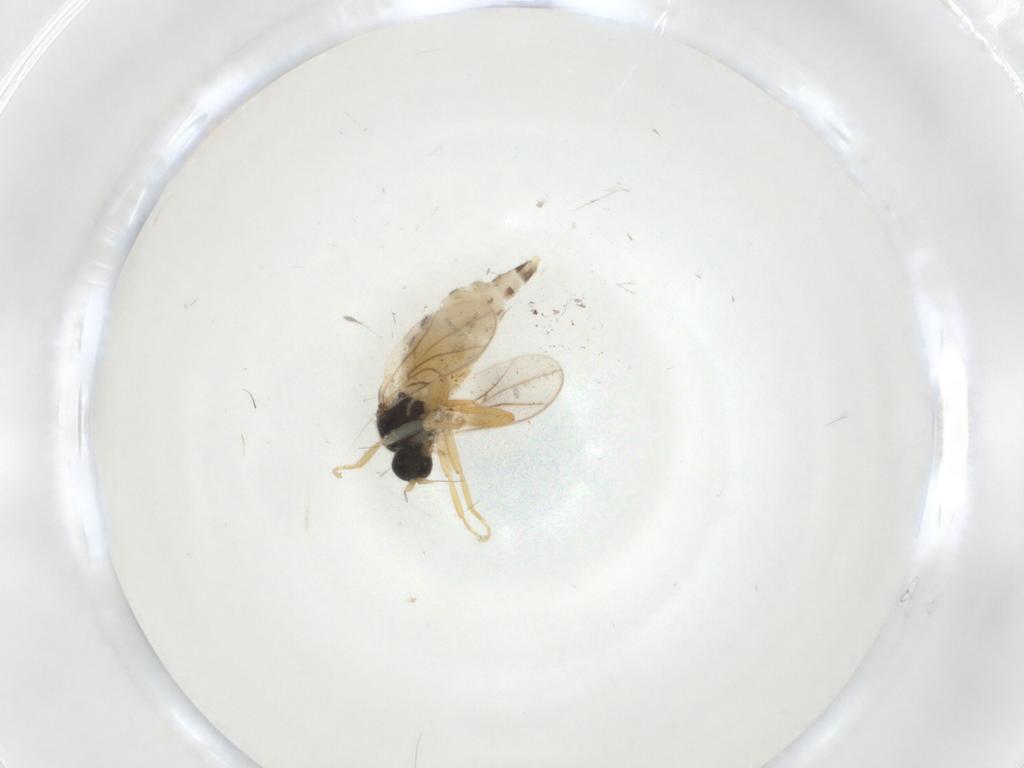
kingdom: Animalia
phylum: Arthropoda
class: Insecta
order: Diptera
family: Hybotidae
